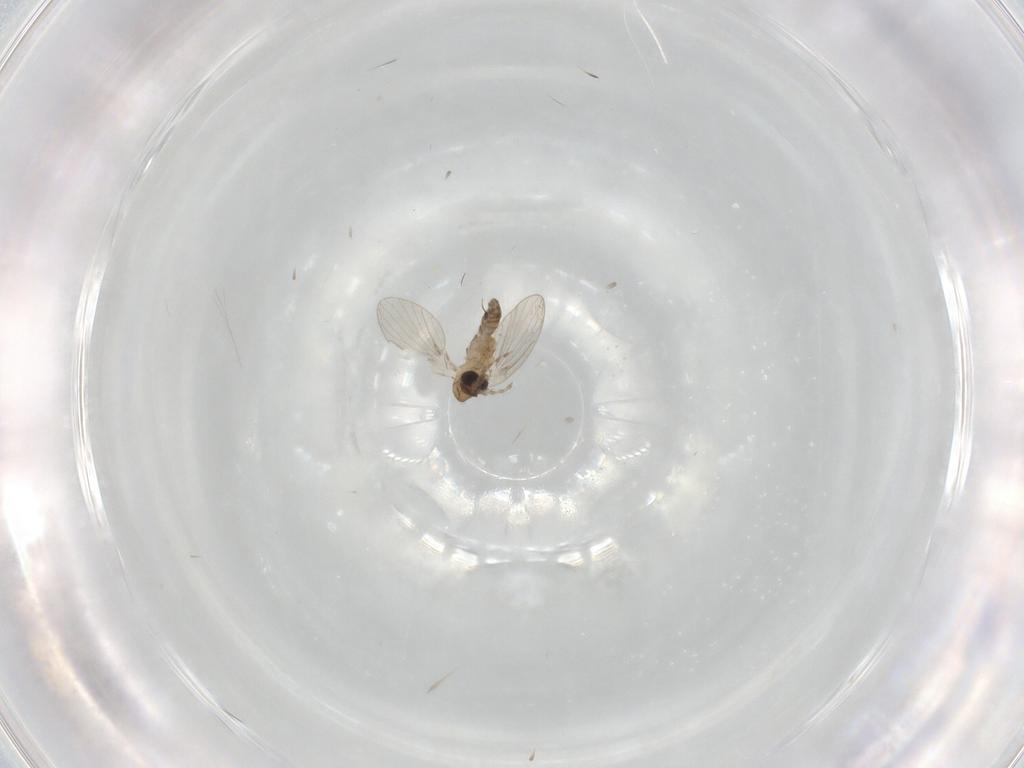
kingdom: Animalia
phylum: Arthropoda
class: Insecta
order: Diptera
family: Psychodidae
